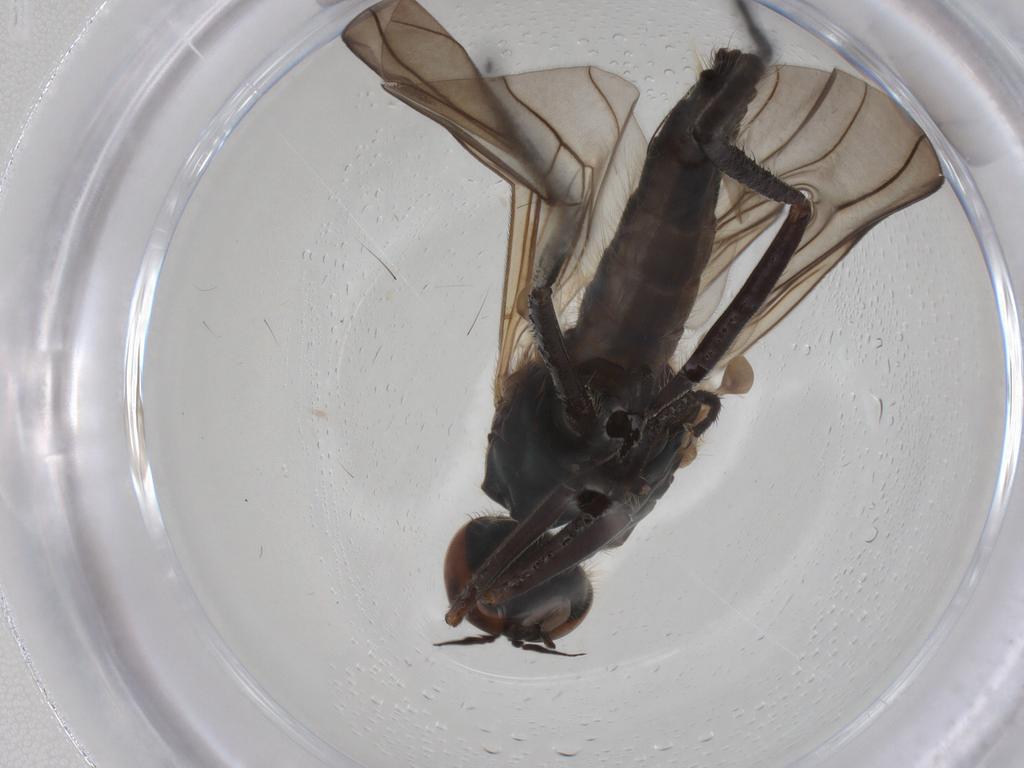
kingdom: Animalia
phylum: Arthropoda
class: Insecta
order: Diptera
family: Empididae
